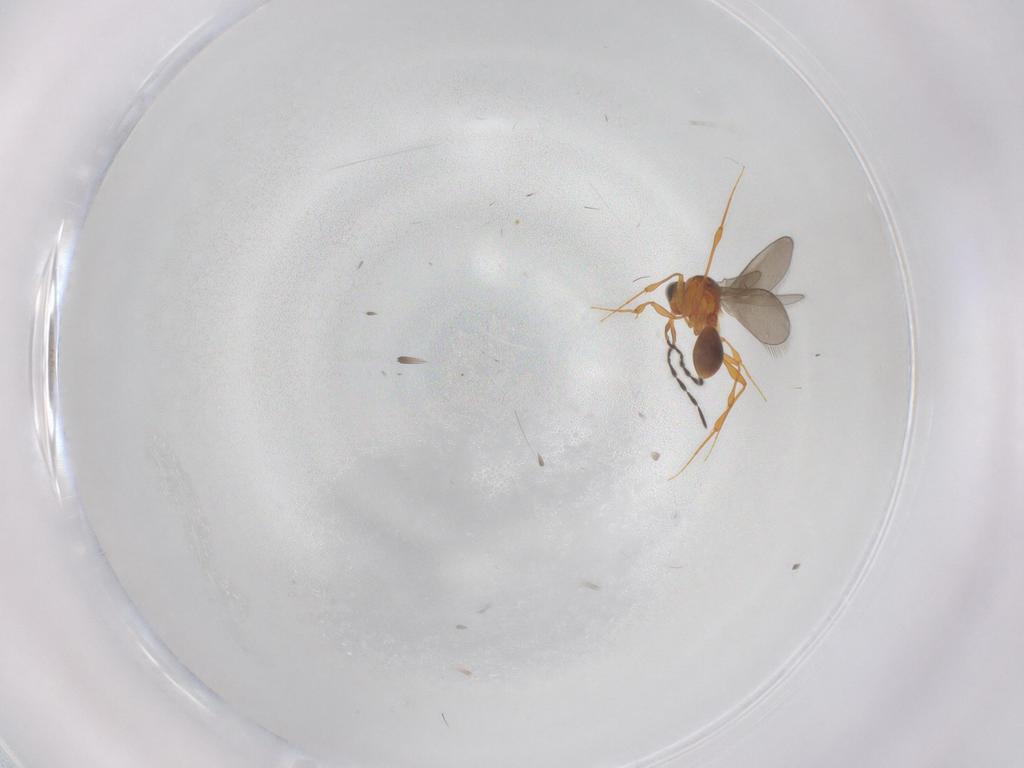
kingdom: Animalia
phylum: Arthropoda
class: Insecta
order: Hymenoptera
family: Platygastridae
